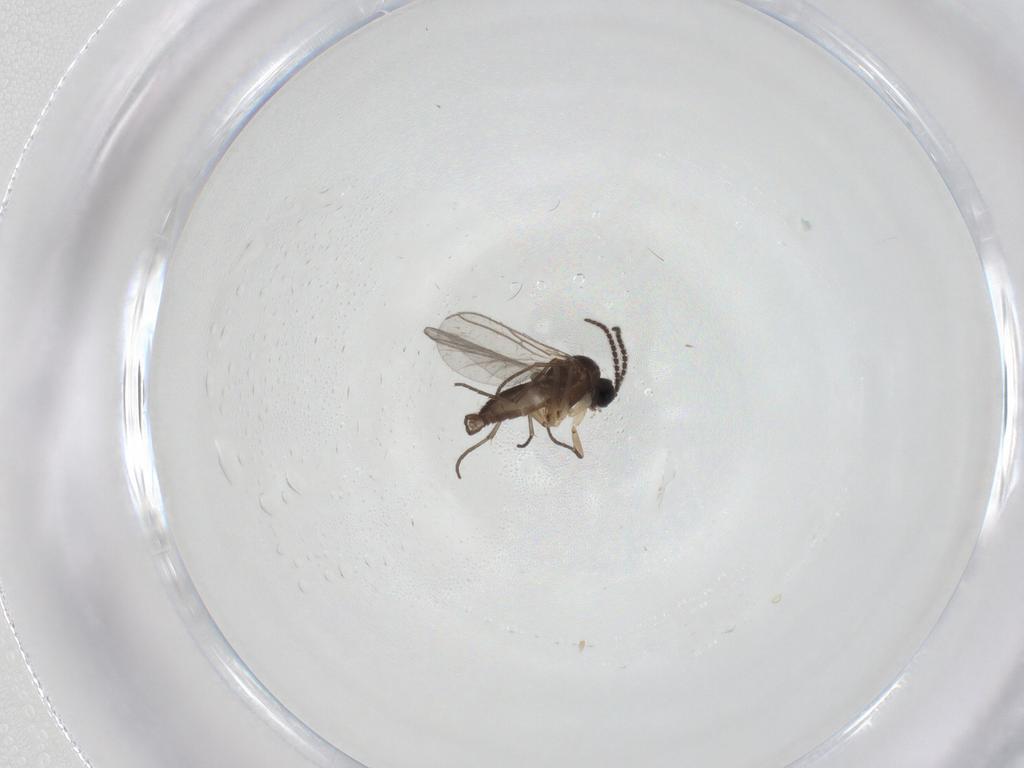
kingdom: Animalia
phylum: Arthropoda
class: Insecta
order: Diptera
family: Sciaridae
